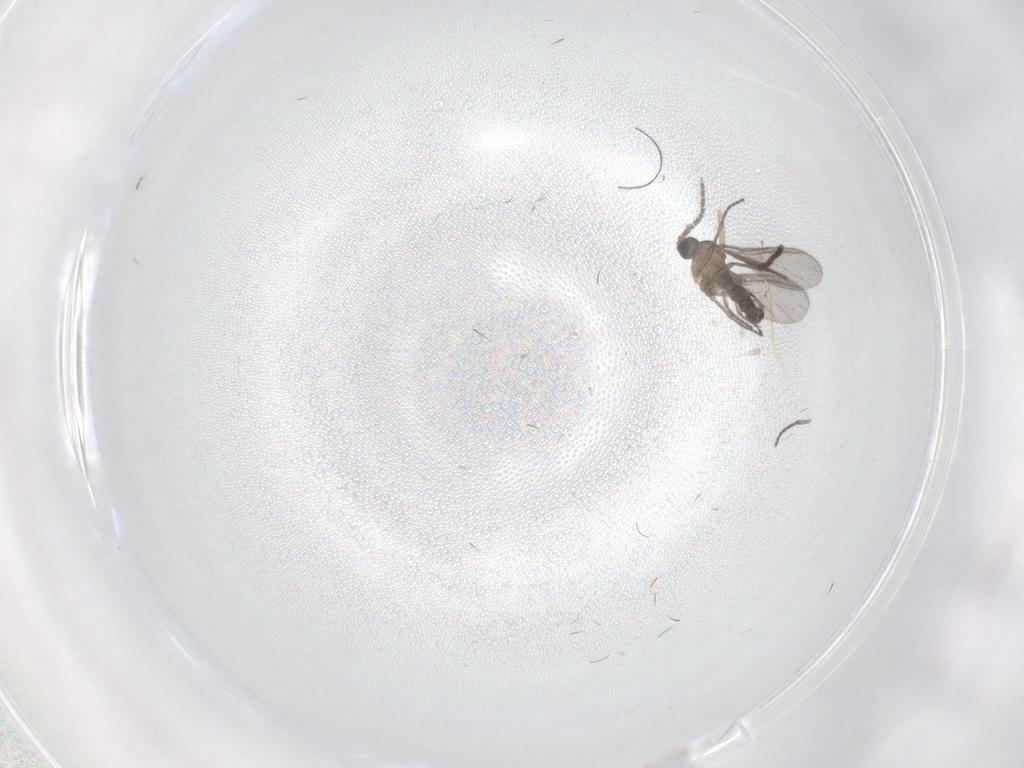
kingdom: Animalia
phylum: Arthropoda
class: Insecta
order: Diptera
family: Sciaridae
